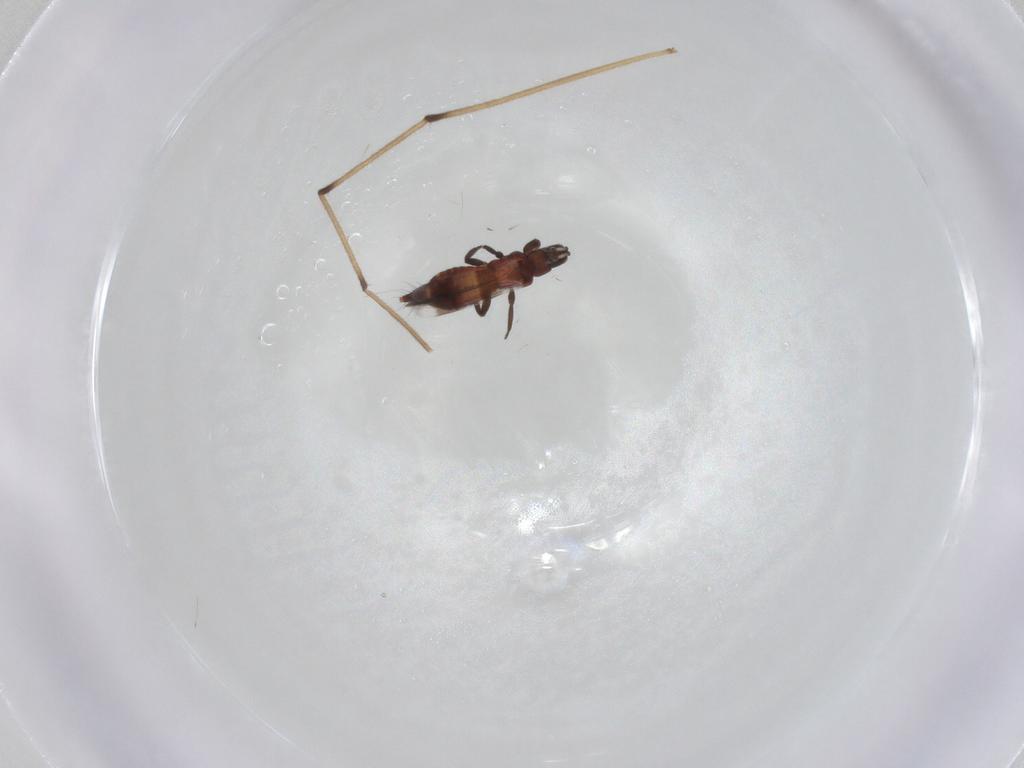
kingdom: Animalia
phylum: Arthropoda
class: Insecta
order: Thysanoptera
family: Aeolothripidae
